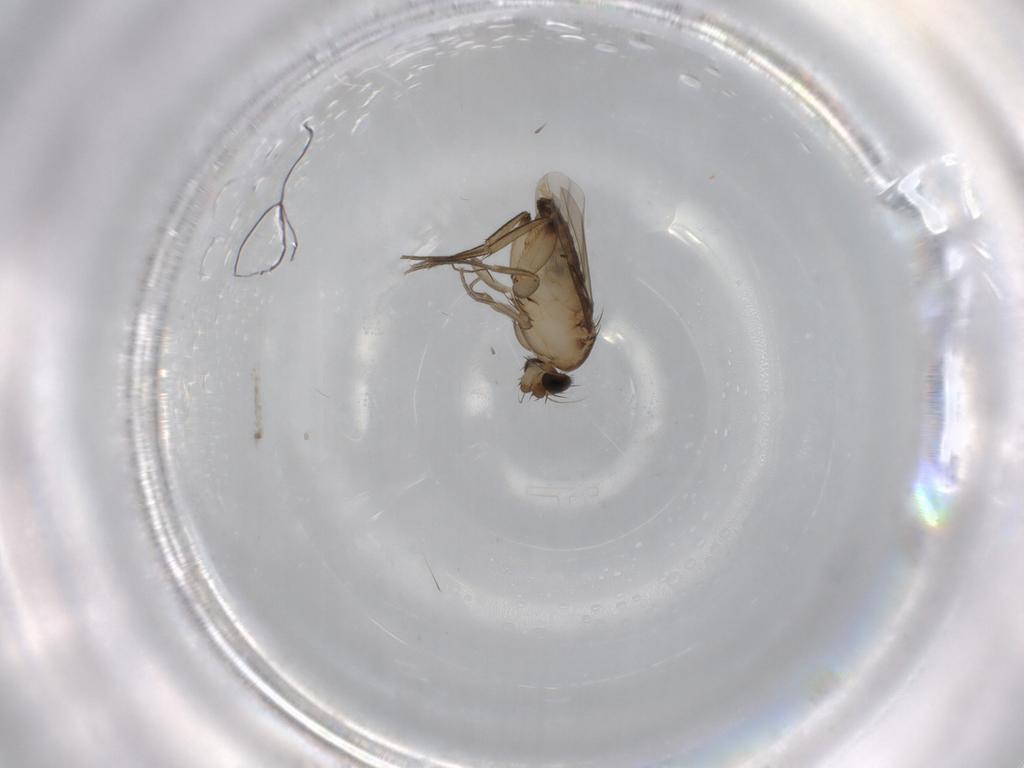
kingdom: Animalia
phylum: Arthropoda
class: Insecta
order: Diptera
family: Phoridae
